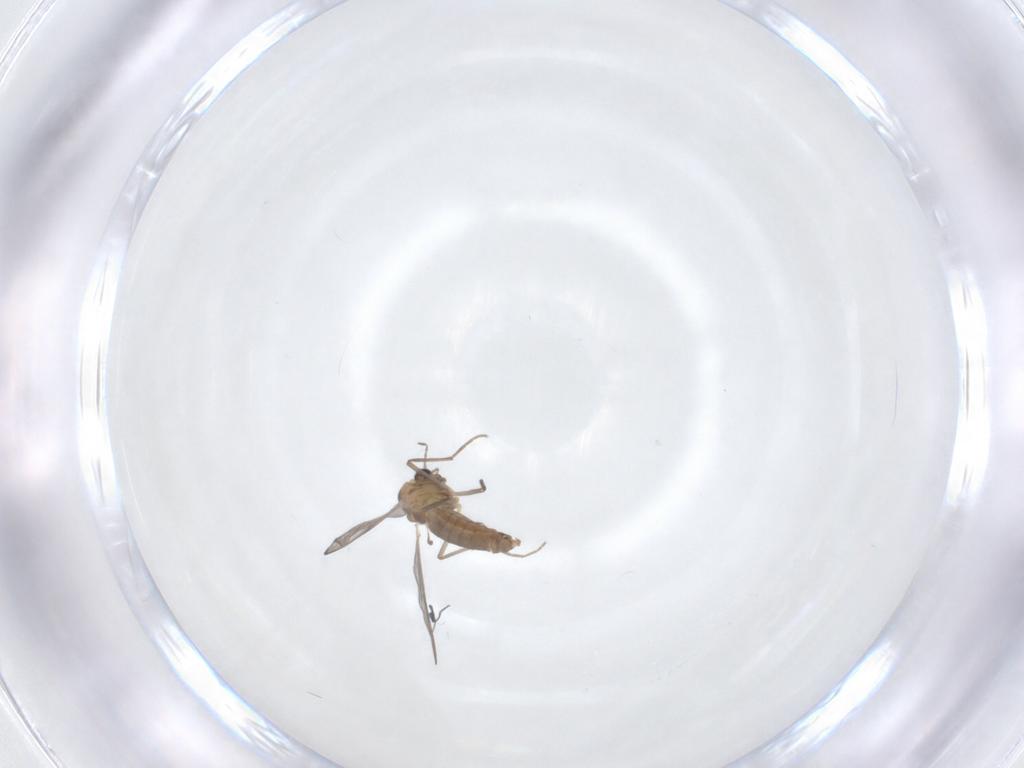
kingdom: Animalia
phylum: Arthropoda
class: Insecta
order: Diptera
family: Chironomidae
